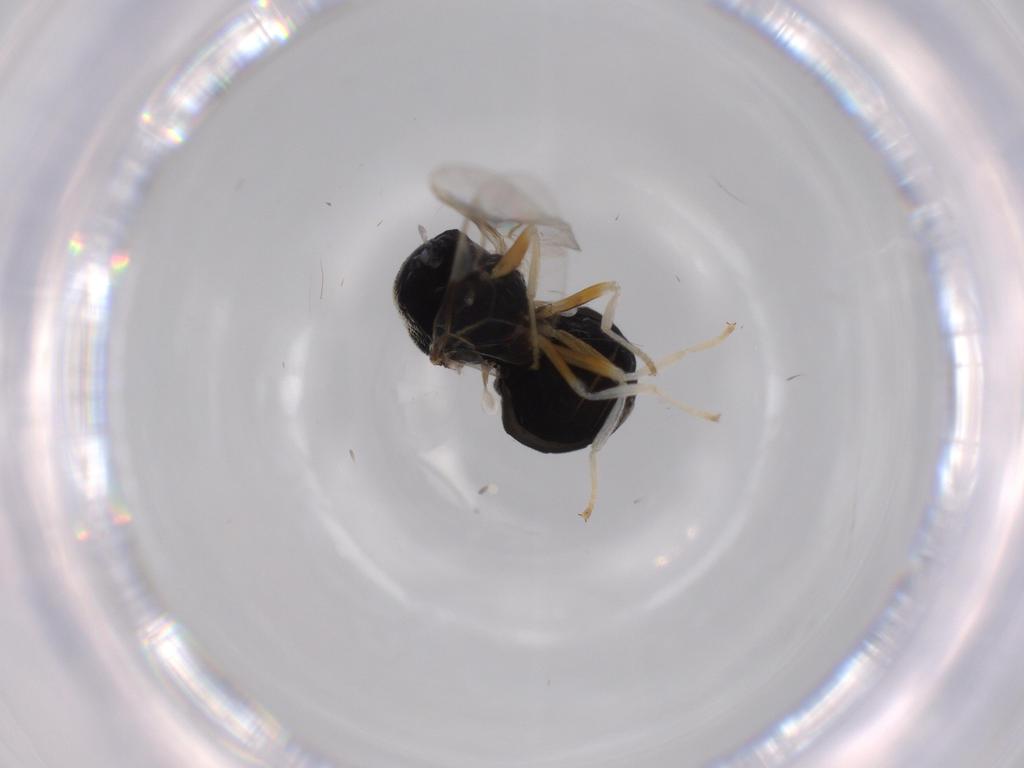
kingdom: Animalia
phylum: Arthropoda
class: Insecta
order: Diptera
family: Stratiomyidae
